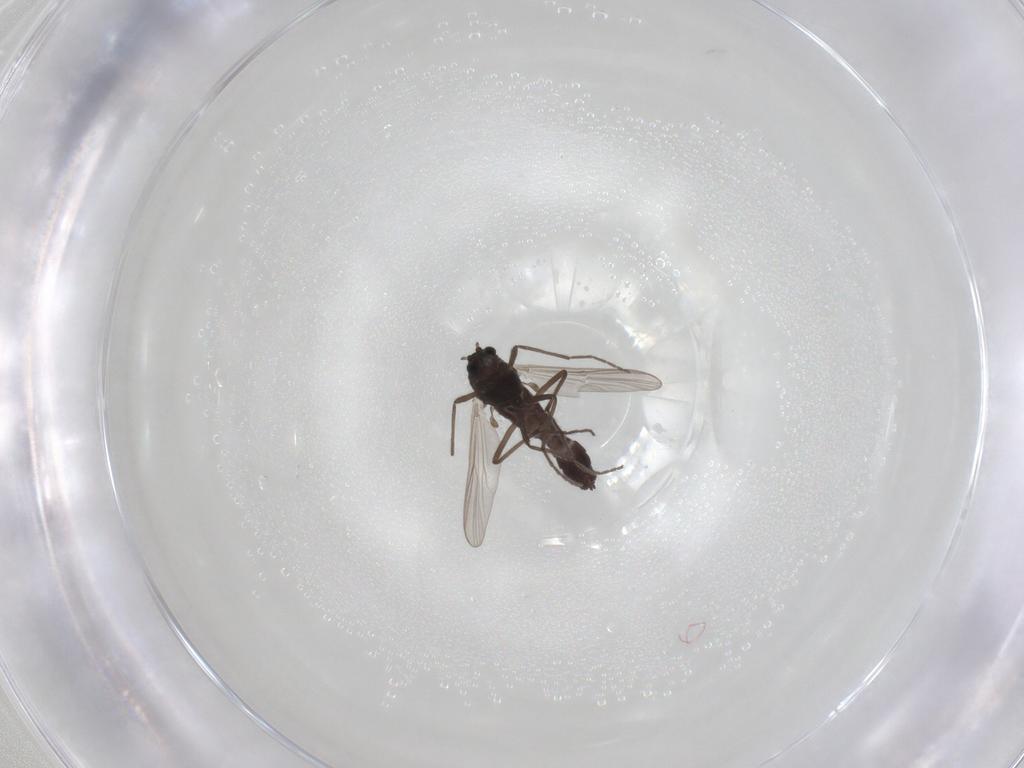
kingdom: Animalia
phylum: Arthropoda
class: Insecta
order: Diptera
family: Chironomidae
